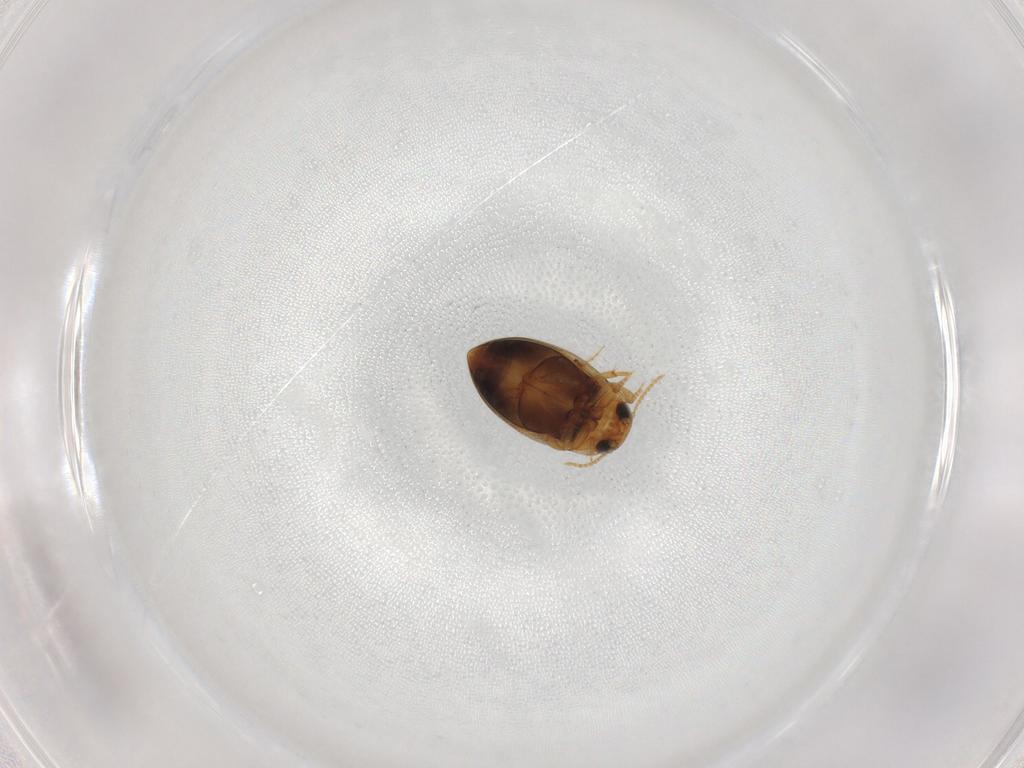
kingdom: Animalia
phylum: Arthropoda
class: Insecta
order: Coleoptera
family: Dytiscidae
